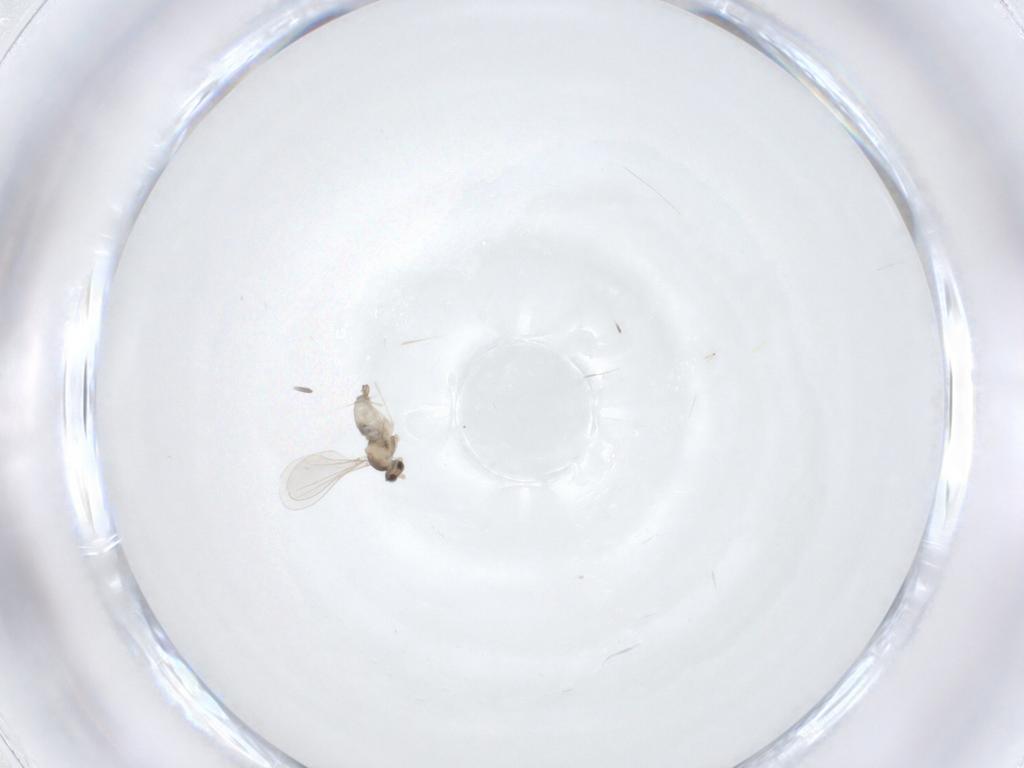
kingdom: Animalia
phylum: Arthropoda
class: Insecta
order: Diptera
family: Cecidomyiidae
